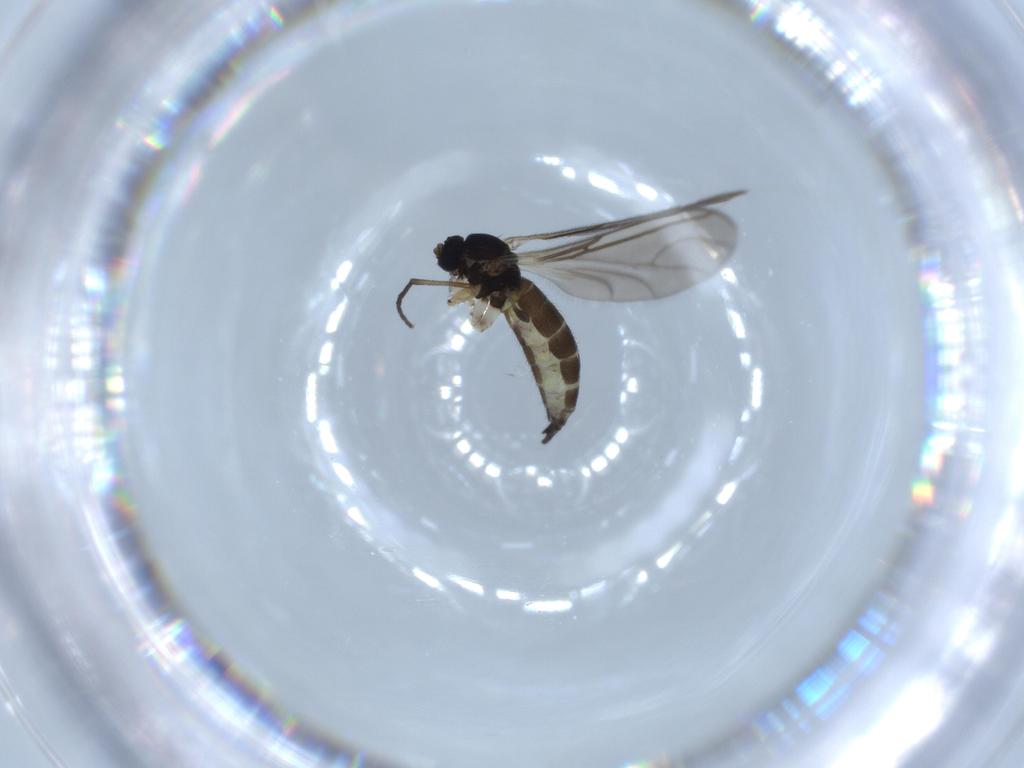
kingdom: Animalia
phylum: Arthropoda
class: Insecta
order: Diptera
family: Sciaridae
